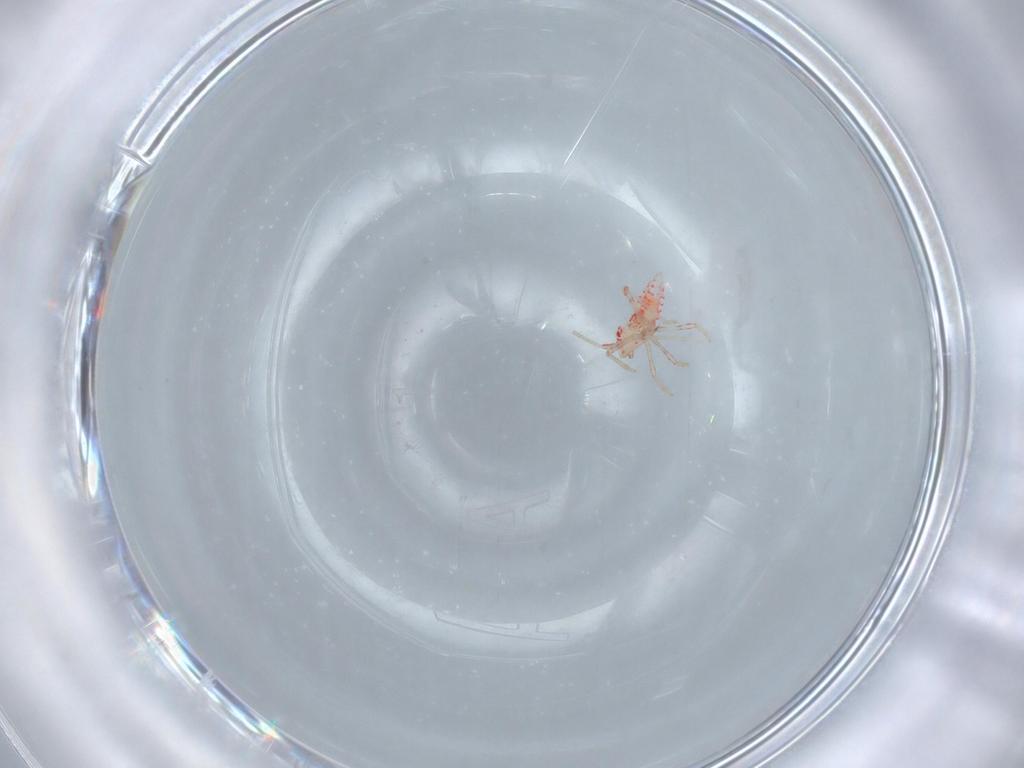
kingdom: Animalia
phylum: Arthropoda
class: Insecta
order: Hemiptera
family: Miridae
